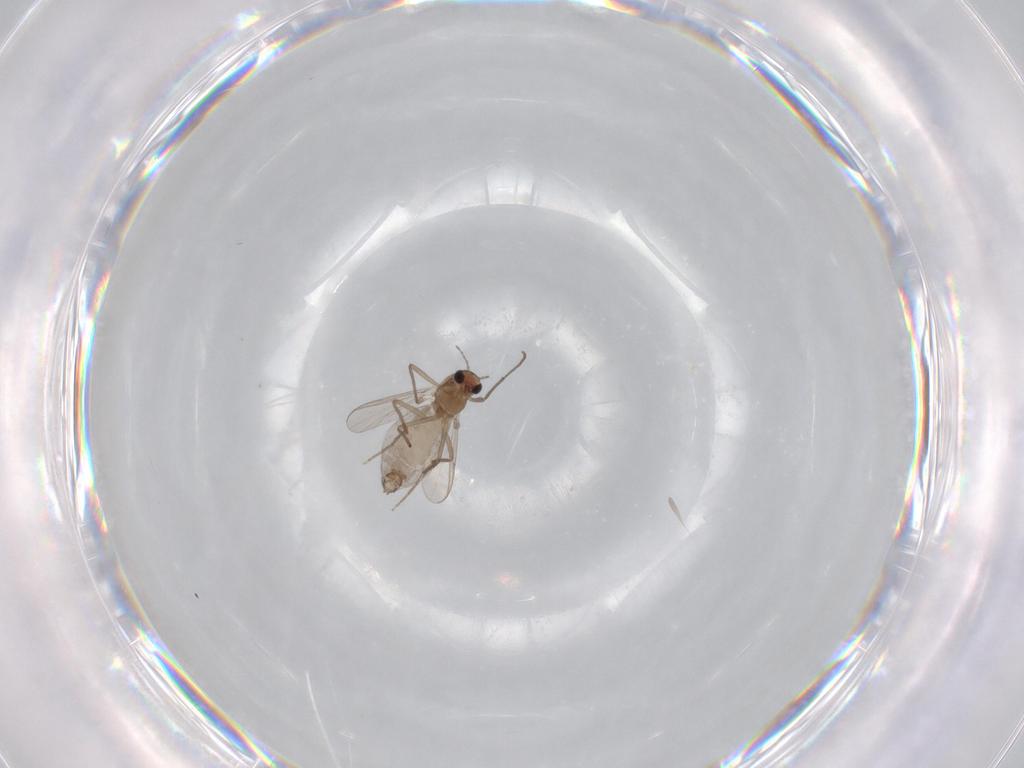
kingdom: Animalia
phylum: Arthropoda
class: Insecta
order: Diptera
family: Chironomidae
